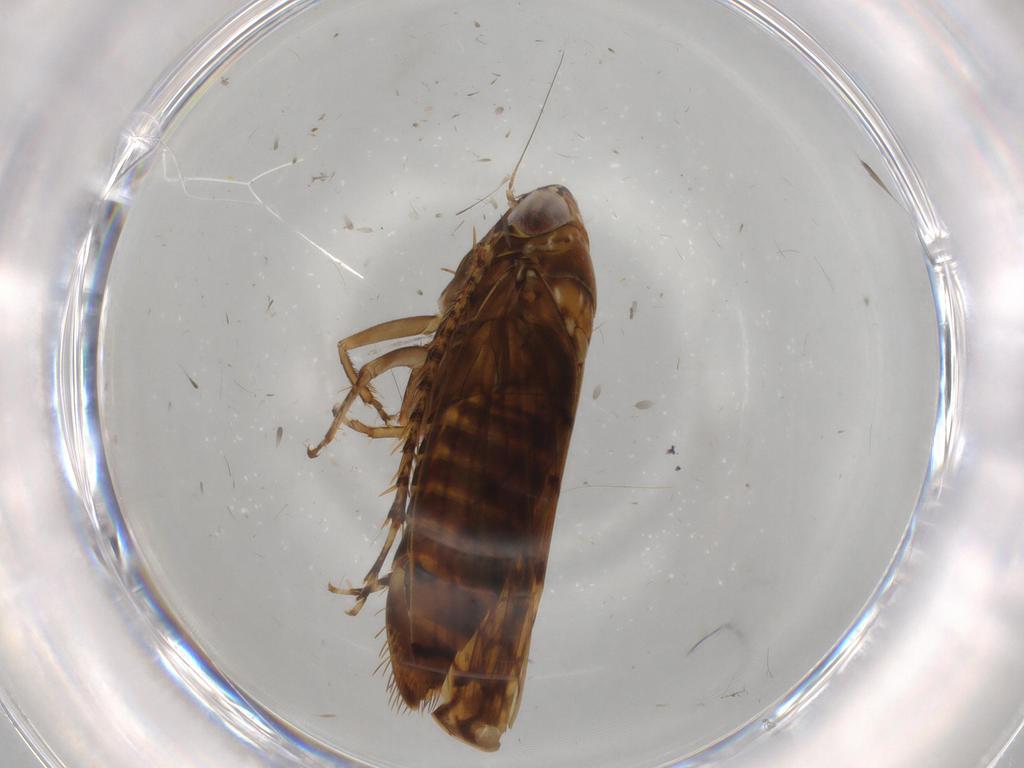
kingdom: Animalia
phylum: Arthropoda
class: Insecta
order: Hemiptera
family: Cicadellidae
